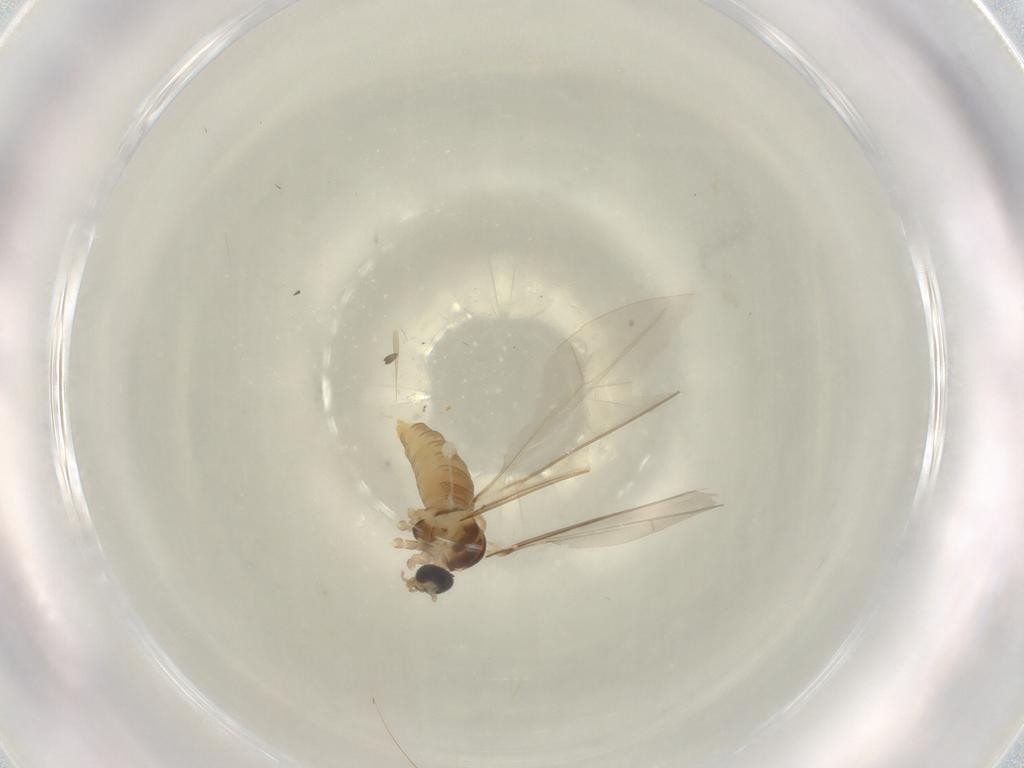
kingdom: Animalia
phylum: Arthropoda
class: Insecta
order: Diptera
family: Cecidomyiidae
